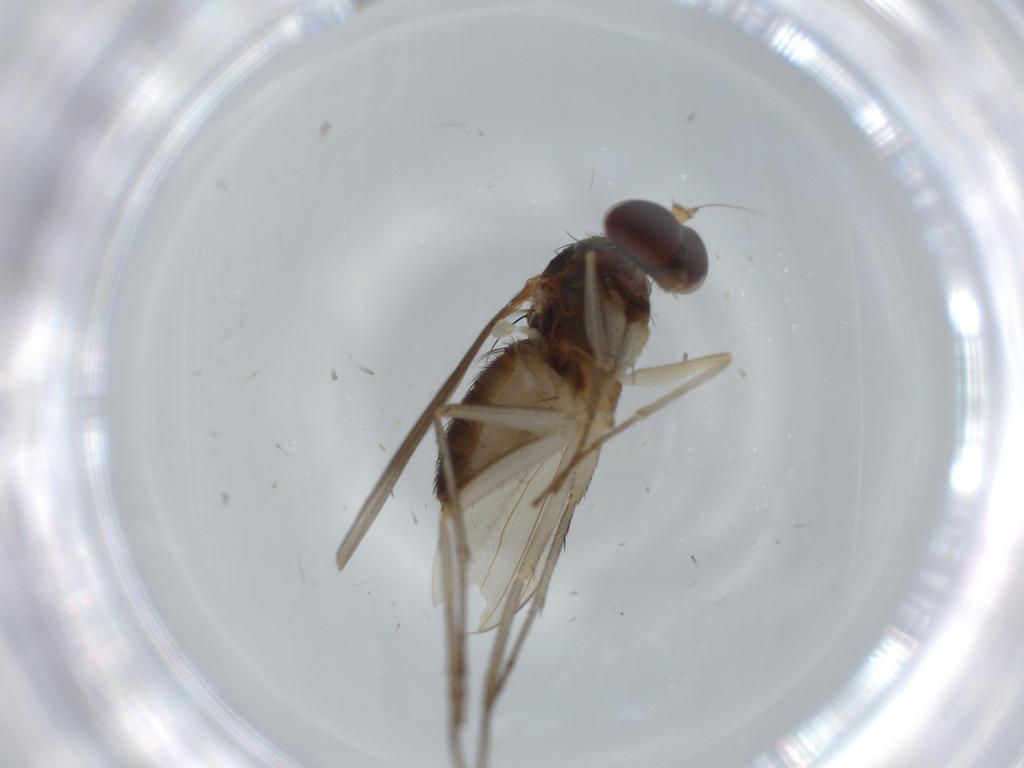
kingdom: Animalia
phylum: Arthropoda
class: Insecta
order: Diptera
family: Dolichopodidae
